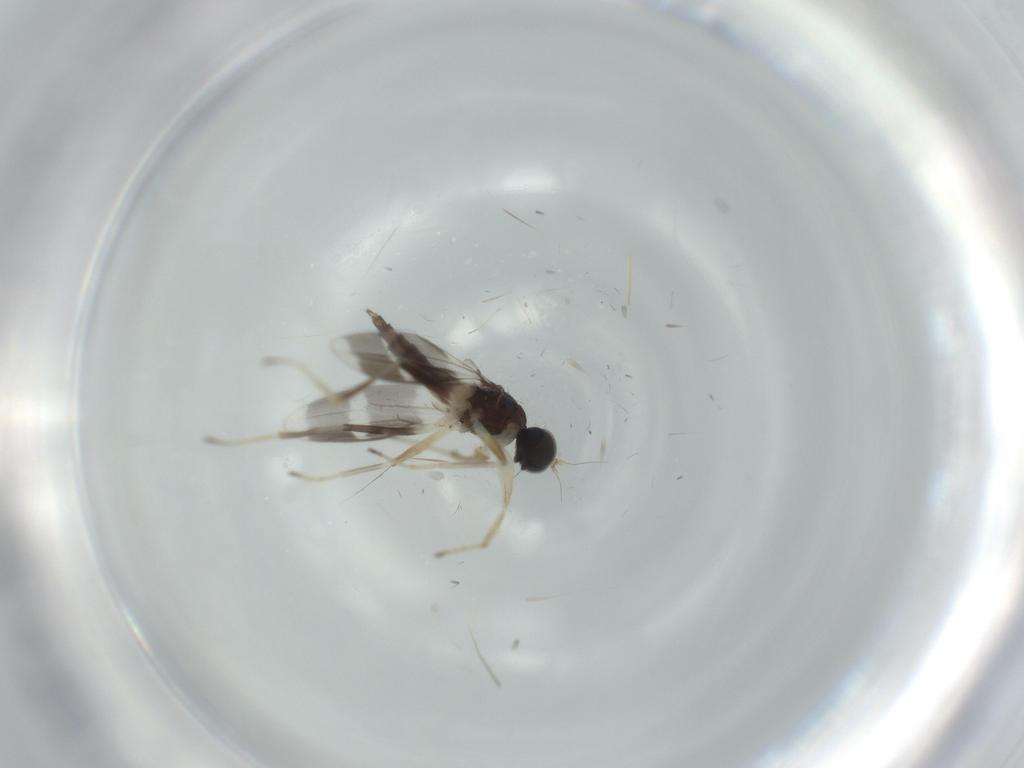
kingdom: Animalia
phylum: Arthropoda
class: Insecta
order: Diptera
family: Hybotidae
